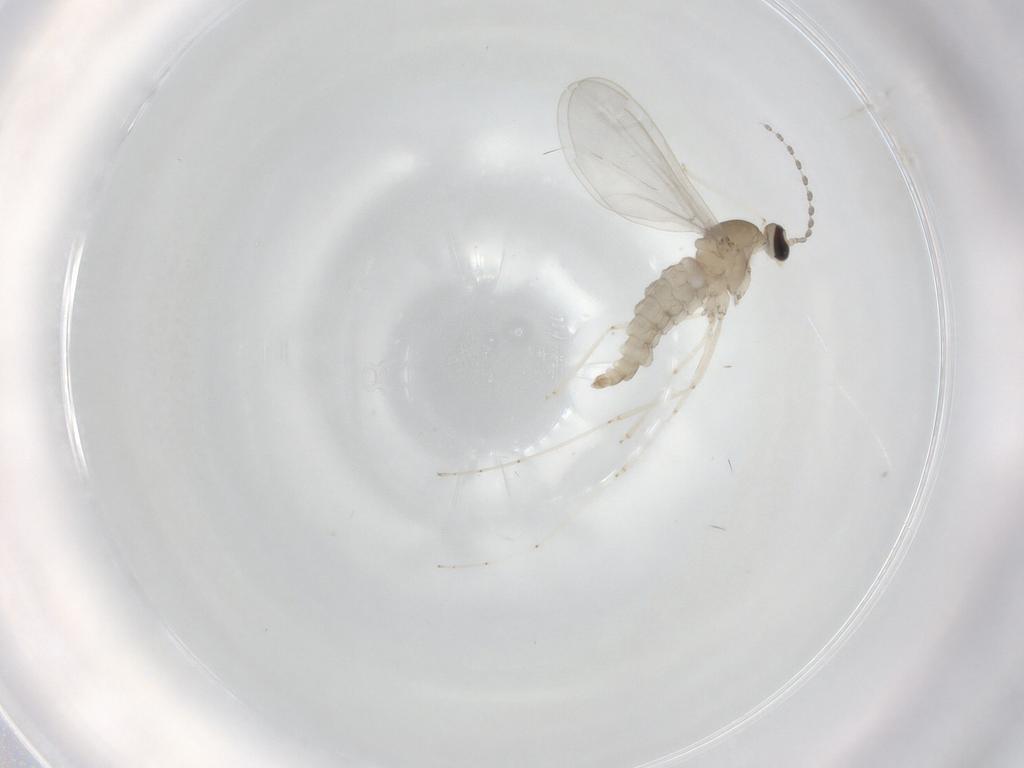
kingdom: Animalia
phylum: Arthropoda
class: Insecta
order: Diptera
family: Cecidomyiidae
